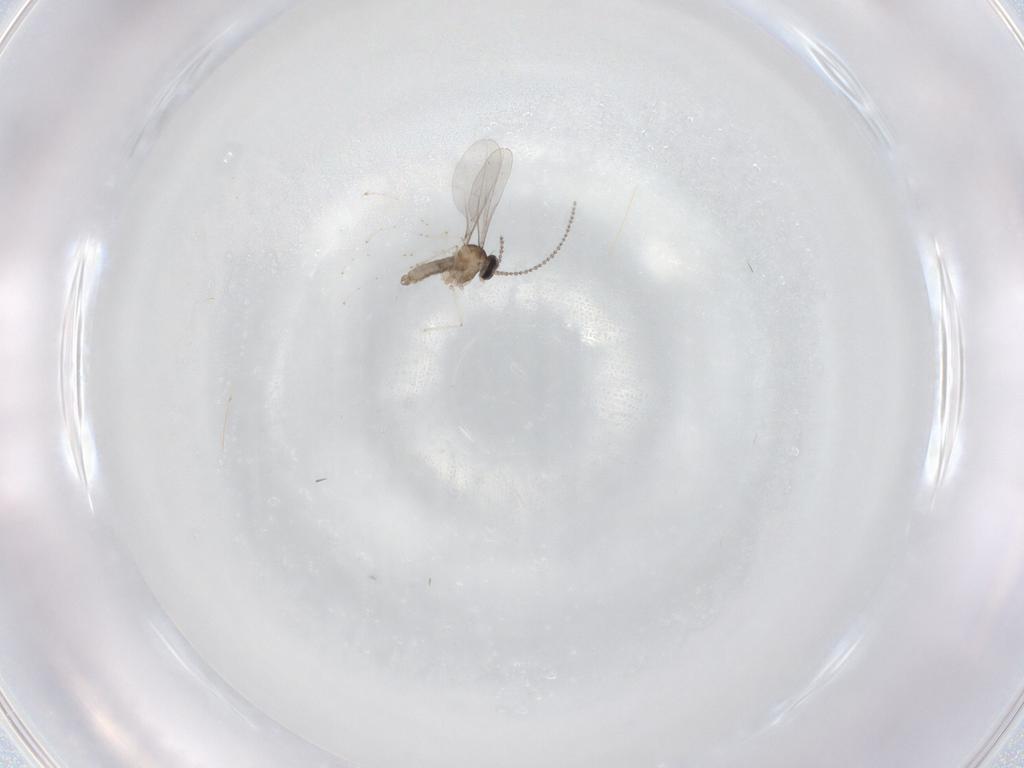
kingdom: Animalia
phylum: Arthropoda
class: Insecta
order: Diptera
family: Cecidomyiidae
